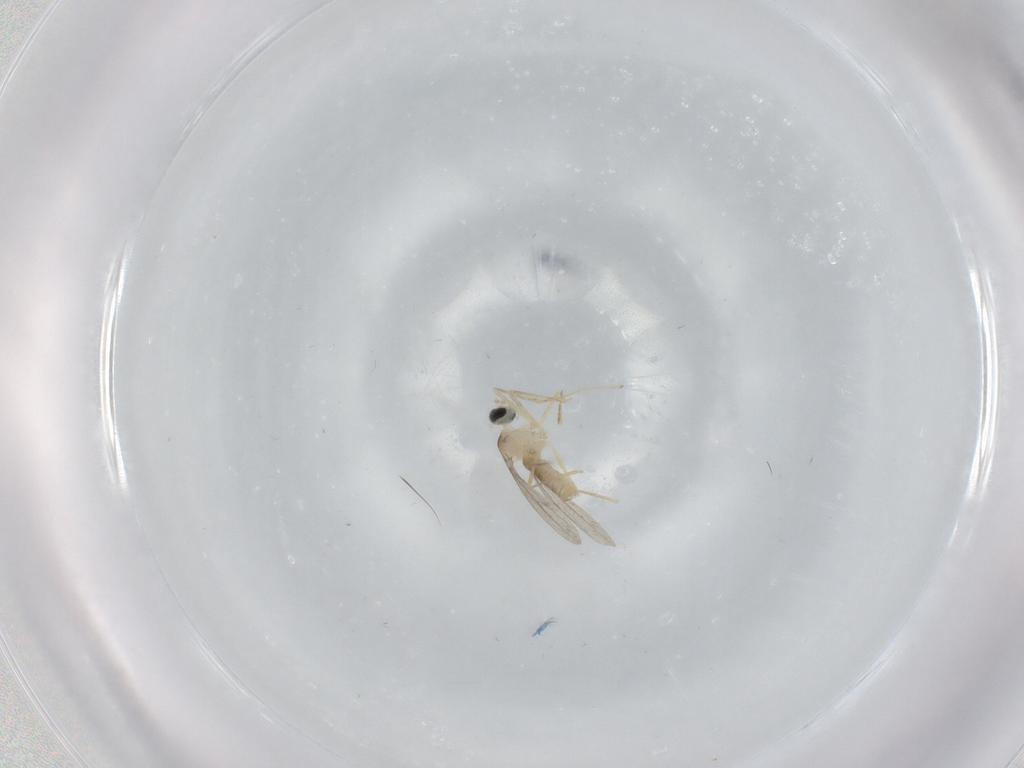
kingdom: Animalia
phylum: Arthropoda
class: Insecta
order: Diptera
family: Cecidomyiidae
